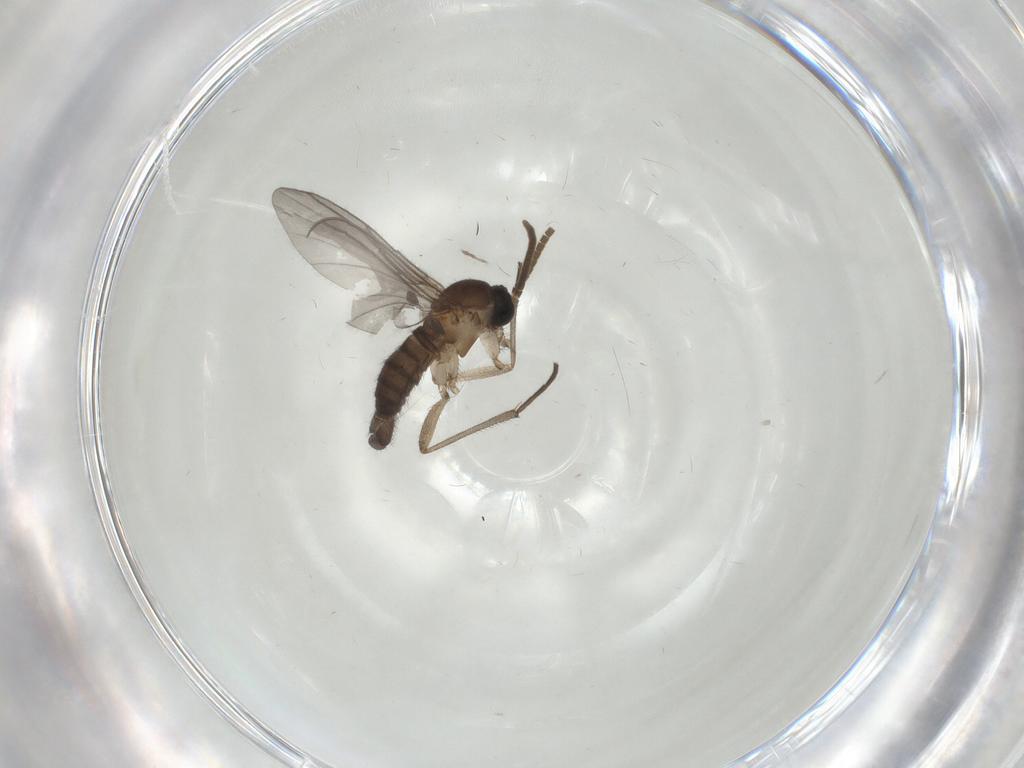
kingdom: Animalia
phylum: Arthropoda
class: Insecta
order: Diptera
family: Chironomidae
